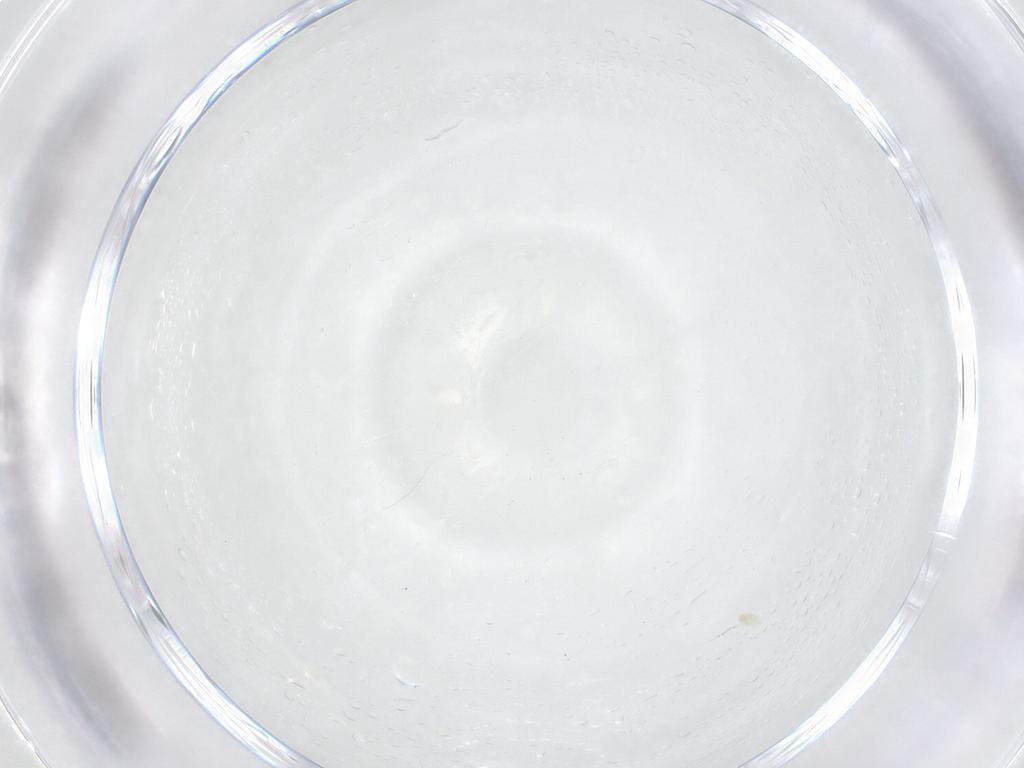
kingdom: Animalia
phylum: Arthropoda
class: Insecta
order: Diptera
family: Ceratopogonidae
